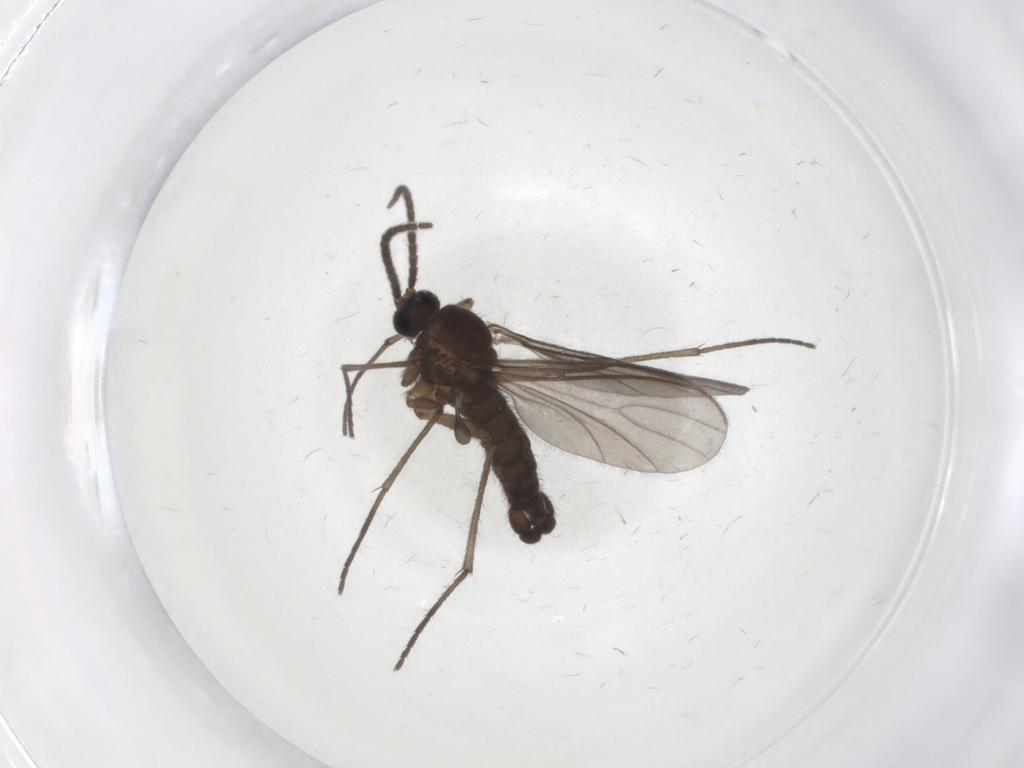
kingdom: Animalia
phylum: Arthropoda
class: Insecta
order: Diptera
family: Sciaridae
